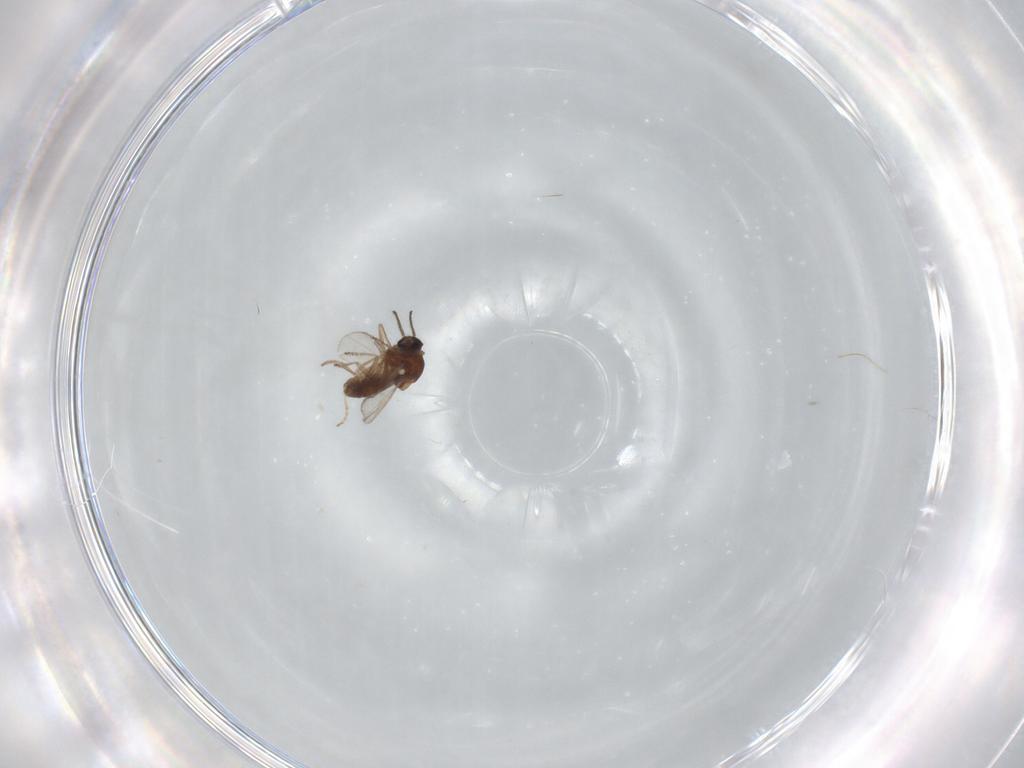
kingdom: Animalia
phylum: Arthropoda
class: Insecta
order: Diptera
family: Ceratopogonidae
